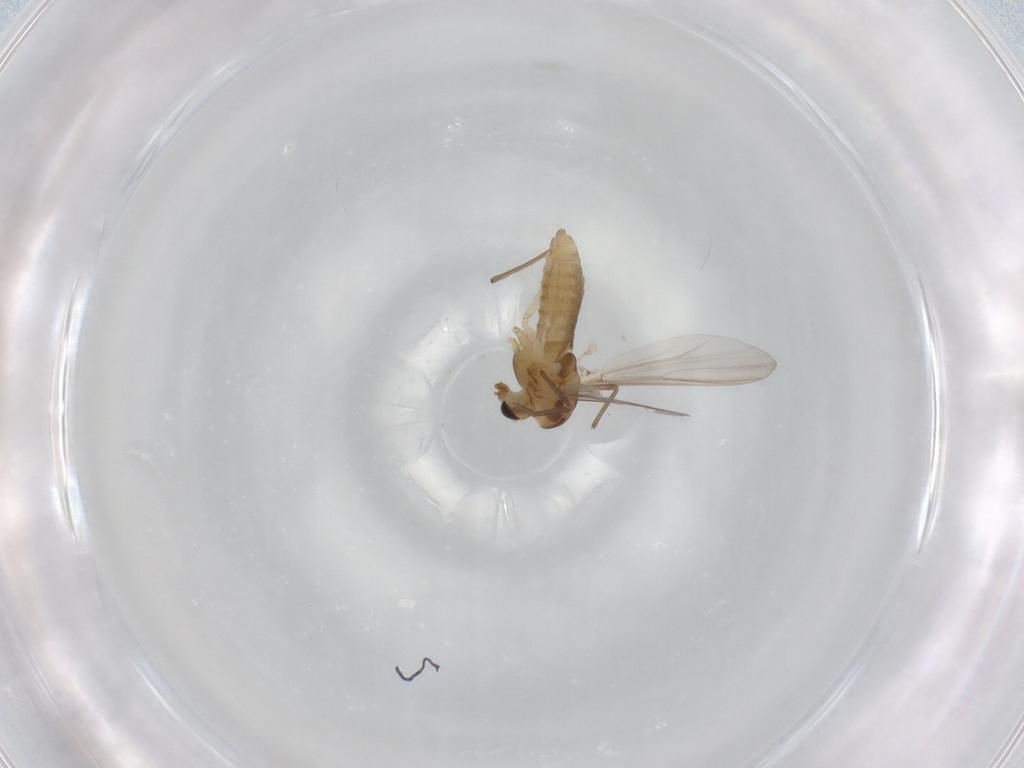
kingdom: Animalia
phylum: Arthropoda
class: Insecta
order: Diptera
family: Chironomidae
